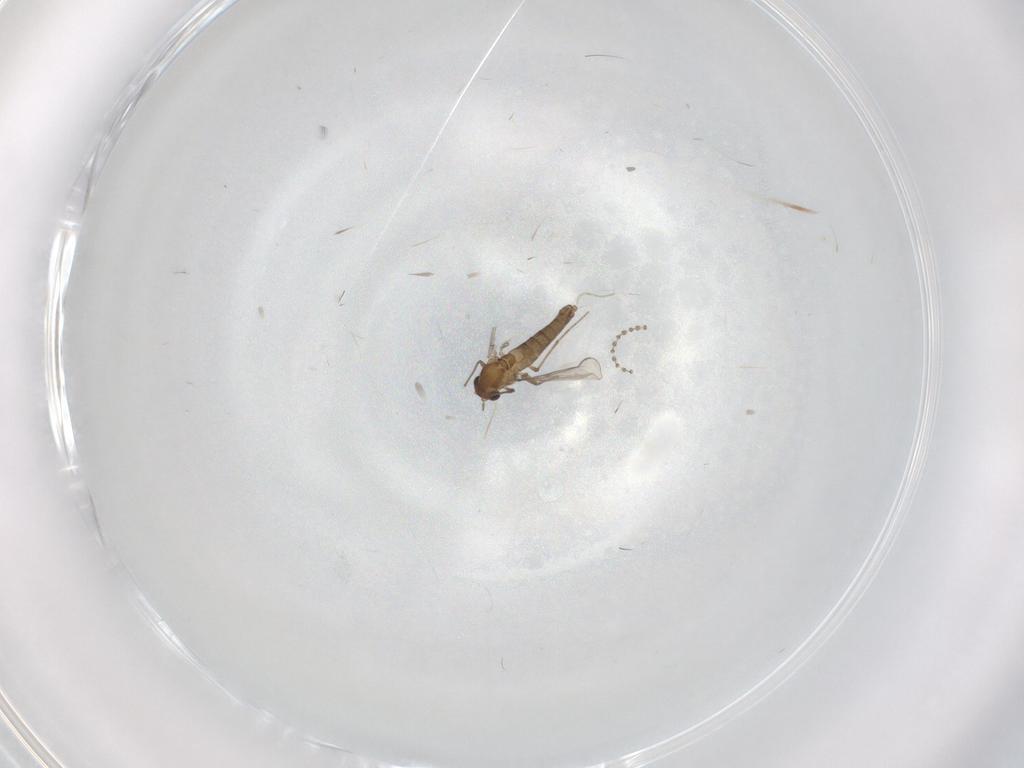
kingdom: Animalia
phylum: Arthropoda
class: Insecta
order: Diptera
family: Chironomidae
